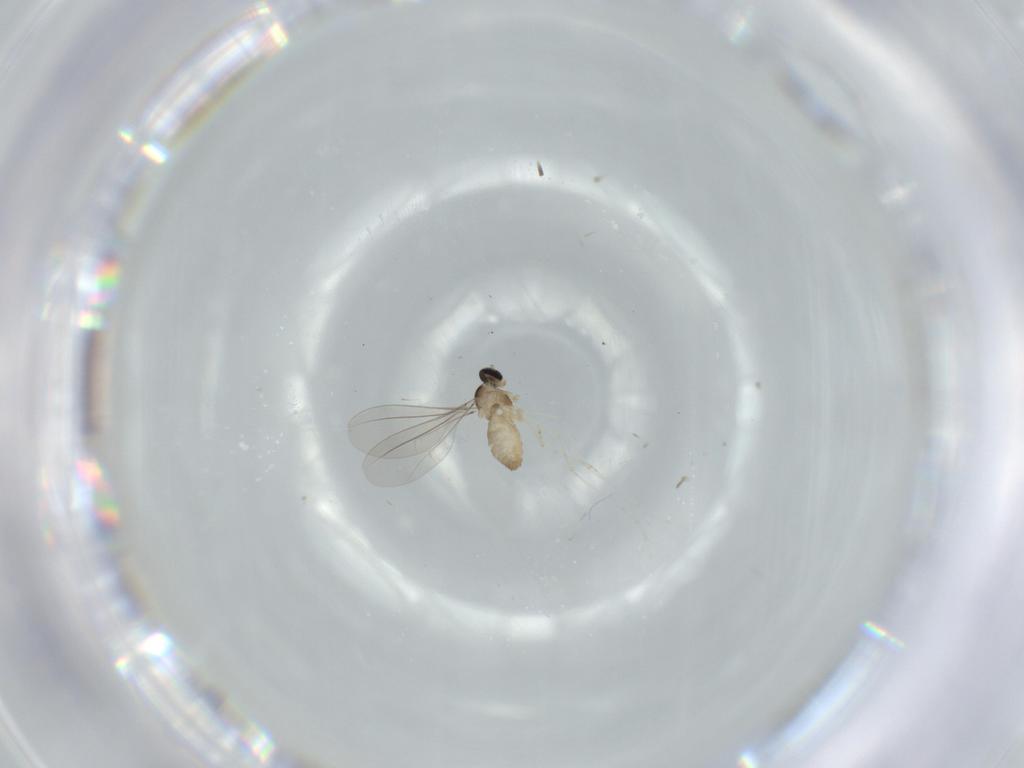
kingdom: Animalia
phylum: Arthropoda
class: Insecta
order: Diptera
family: Cecidomyiidae
